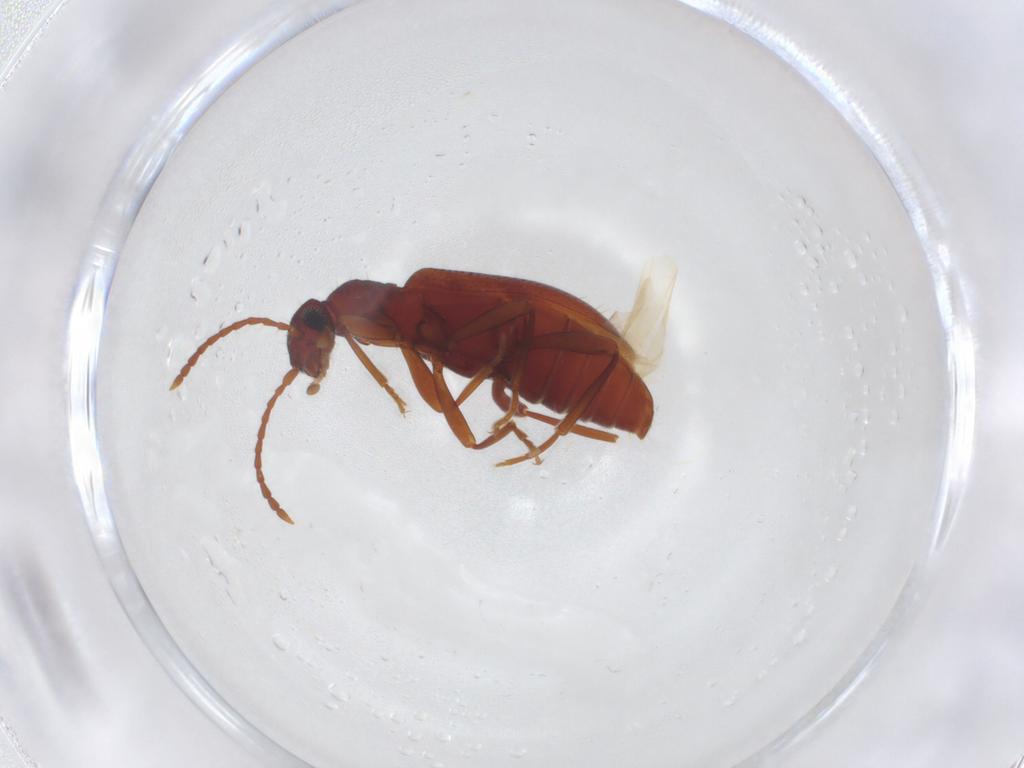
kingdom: Animalia
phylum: Arthropoda
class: Insecta
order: Coleoptera
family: Anthicidae
